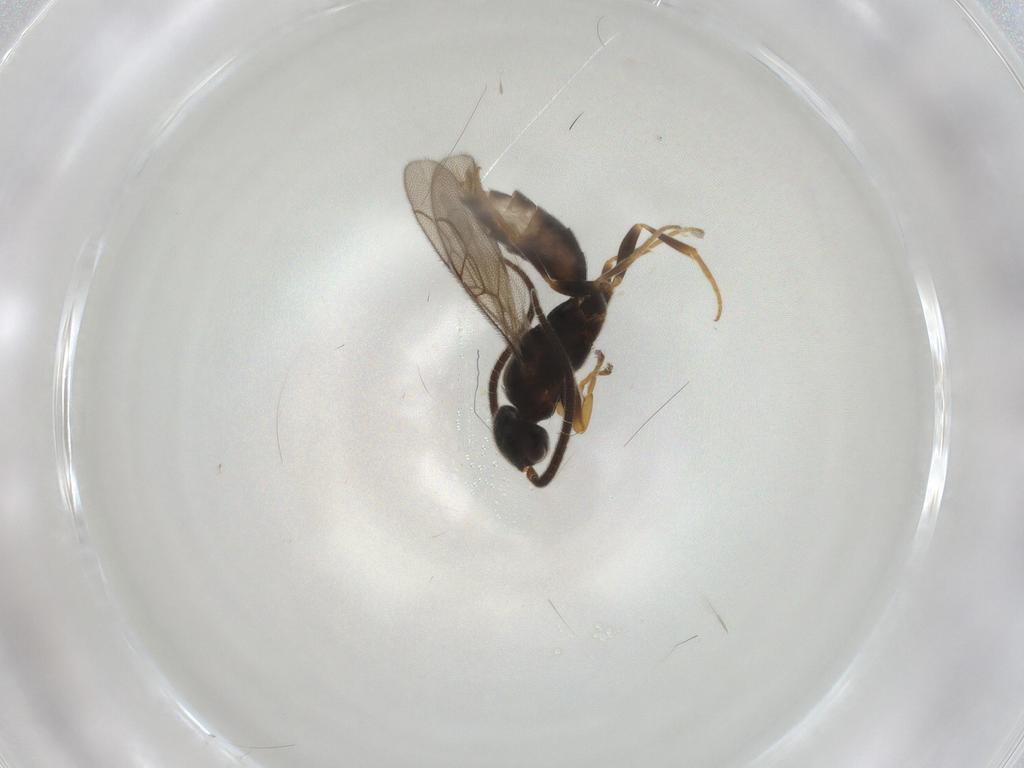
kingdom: Animalia
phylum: Arthropoda
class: Insecta
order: Hymenoptera
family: Sclerogibbidae
